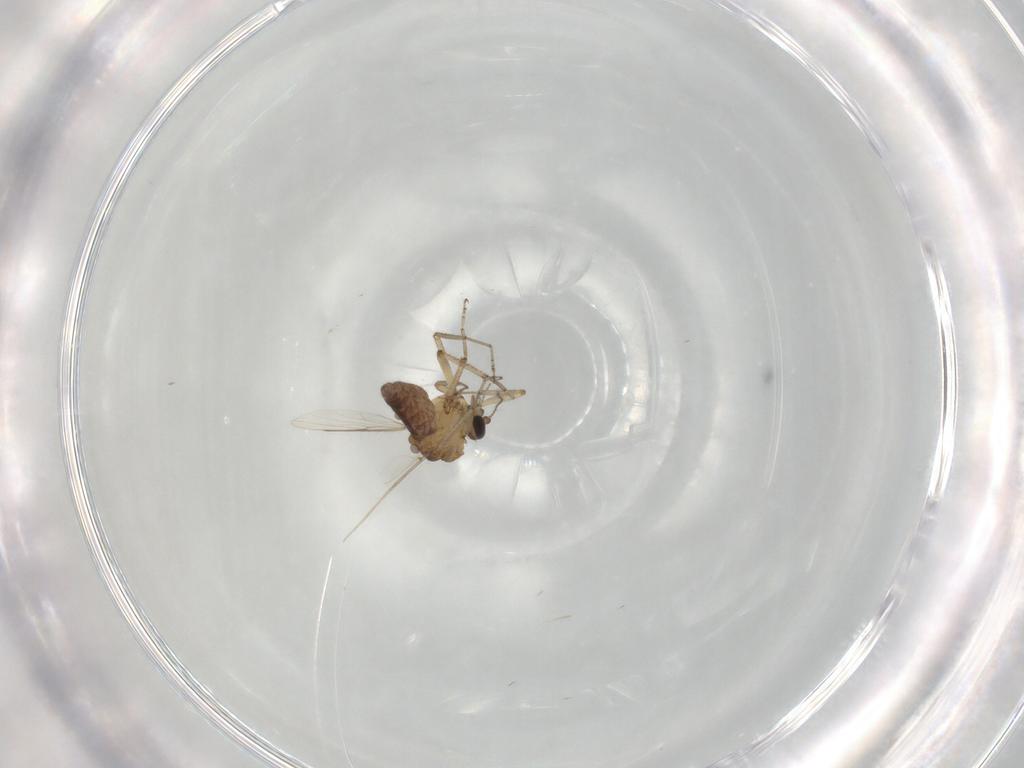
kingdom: Animalia
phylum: Arthropoda
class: Insecta
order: Diptera
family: Ceratopogonidae
